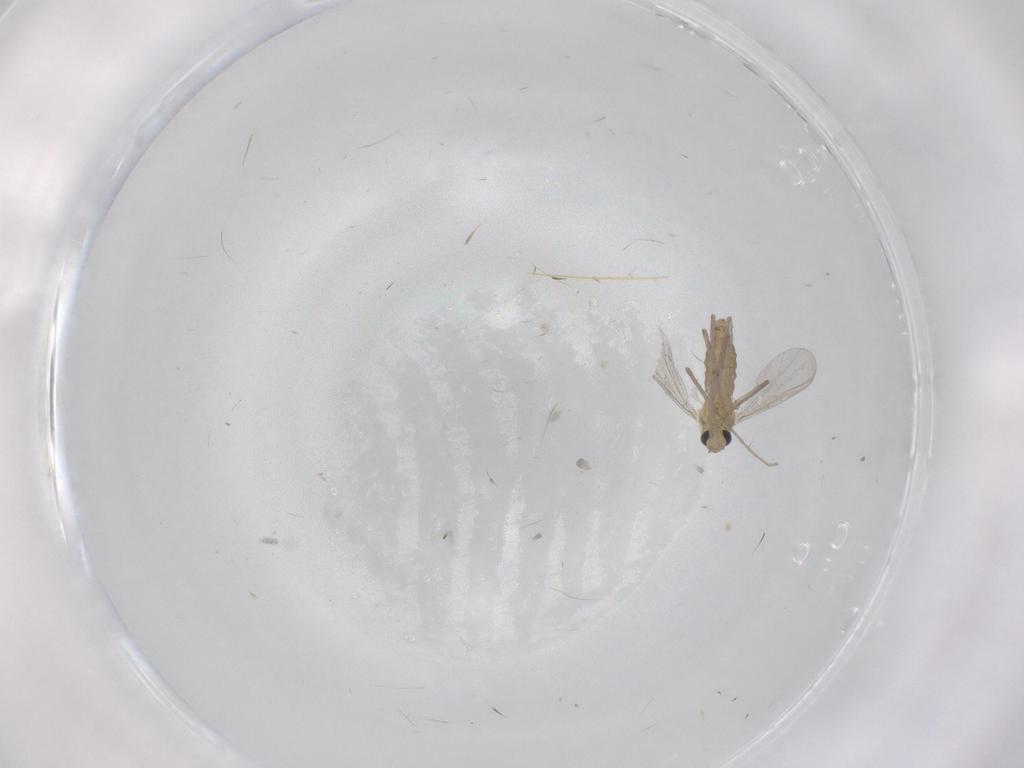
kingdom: Animalia
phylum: Arthropoda
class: Insecta
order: Diptera
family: Chironomidae
